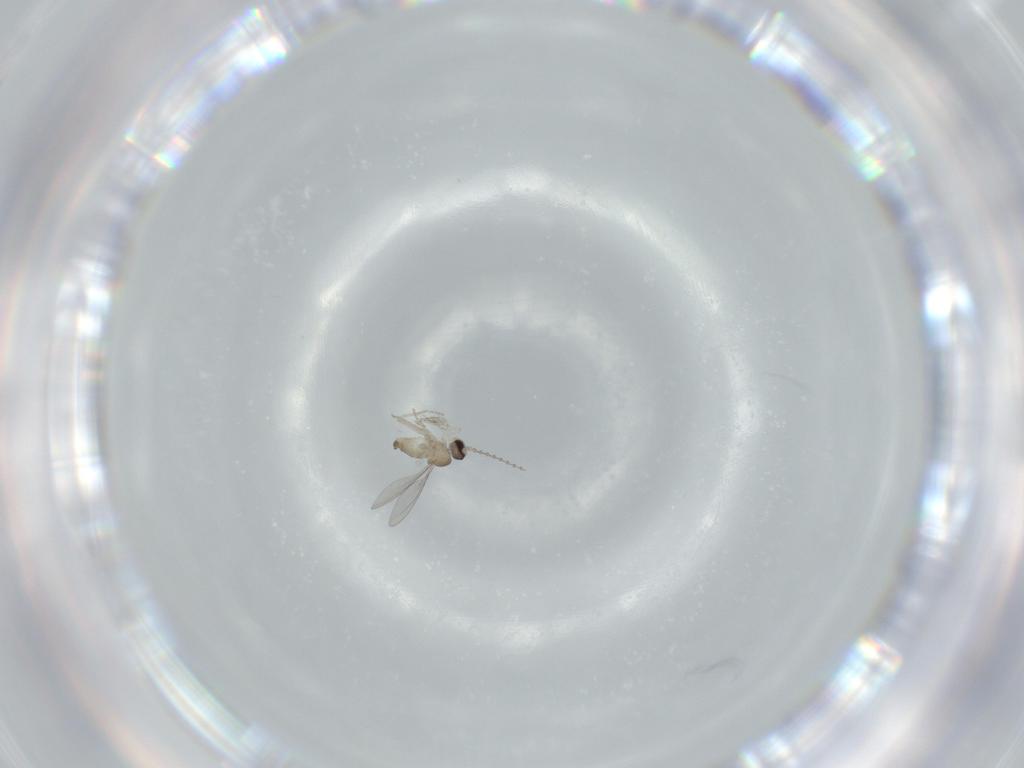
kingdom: Animalia
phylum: Arthropoda
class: Insecta
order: Diptera
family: Cecidomyiidae
